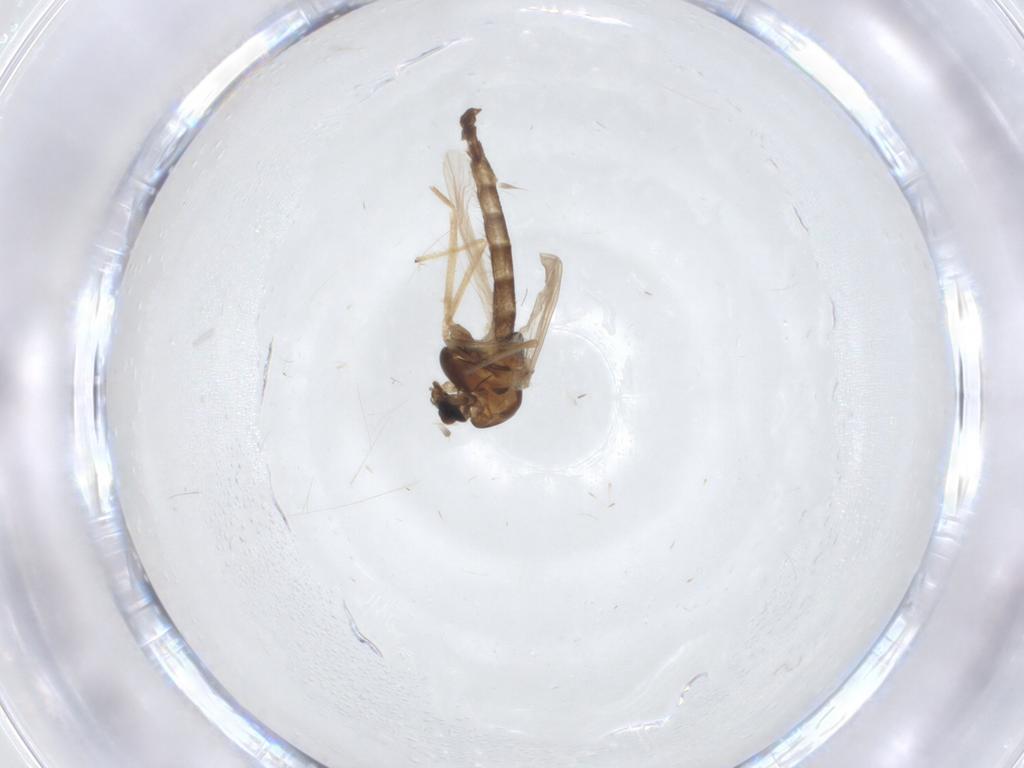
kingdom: Animalia
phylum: Arthropoda
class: Insecta
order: Diptera
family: Chironomidae
